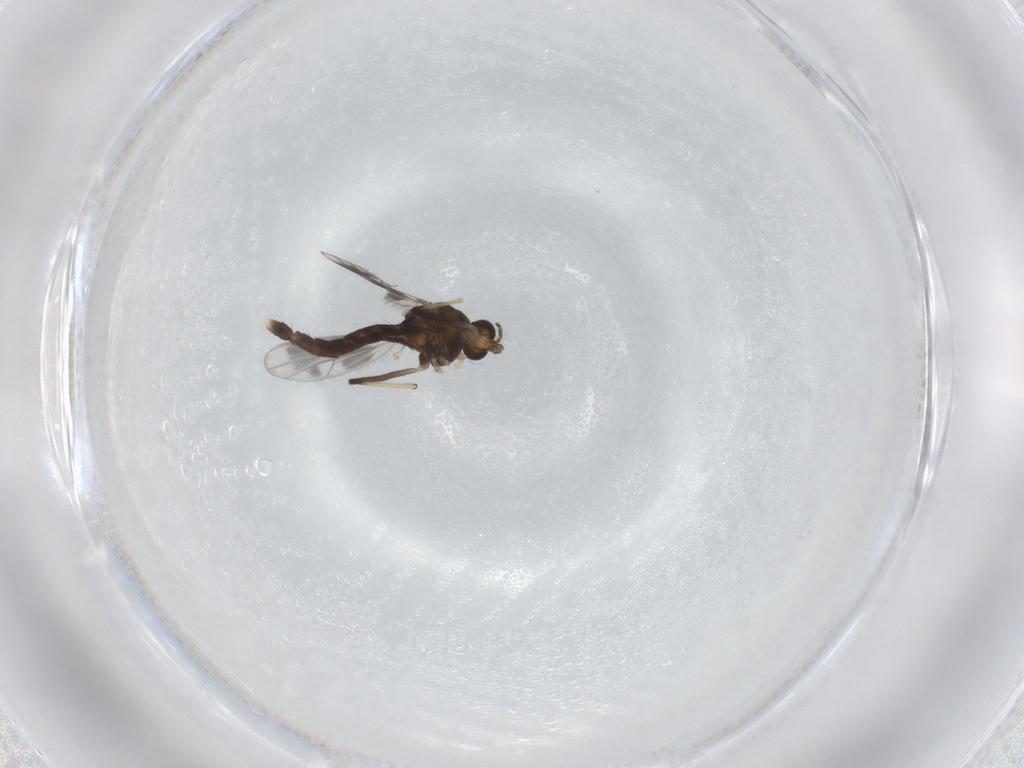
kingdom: Animalia
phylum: Arthropoda
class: Insecta
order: Diptera
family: Chironomidae
